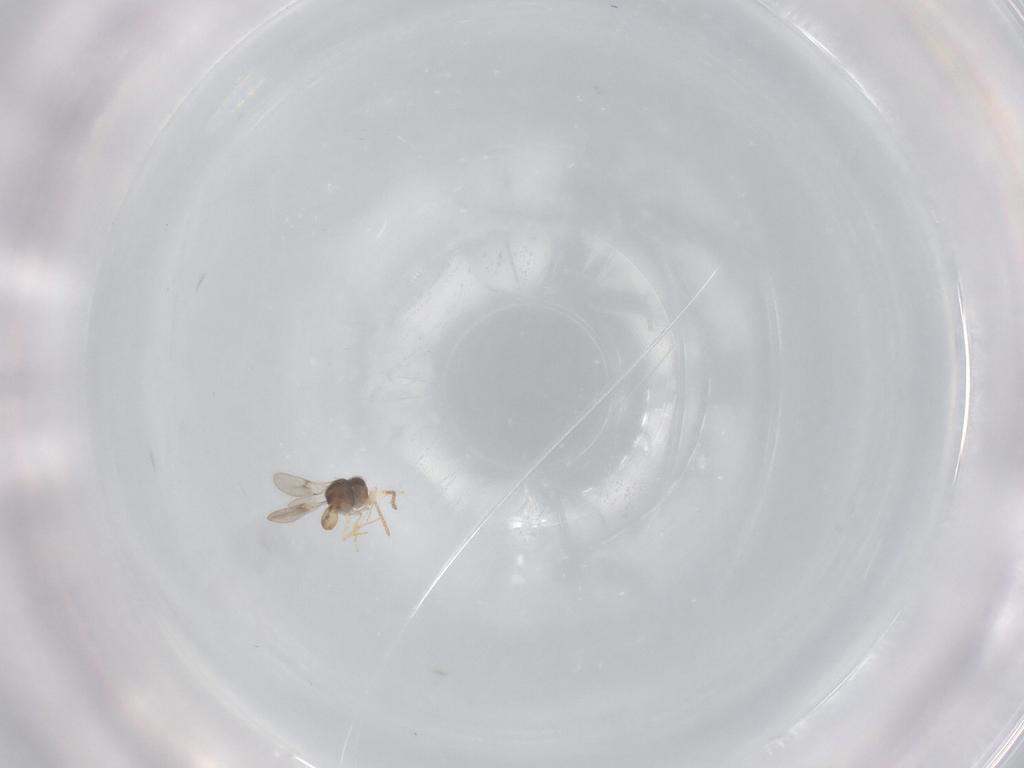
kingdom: Animalia
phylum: Arthropoda
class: Insecta
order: Hymenoptera
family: Scelionidae
